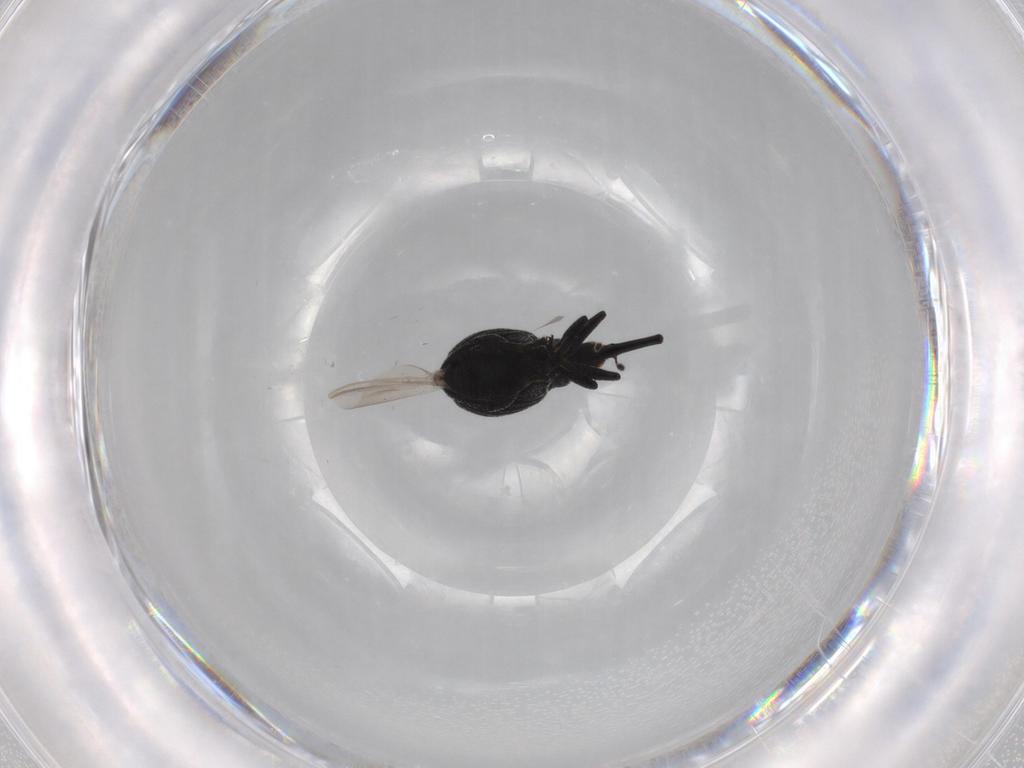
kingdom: Animalia
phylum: Arthropoda
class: Insecta
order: Coleoptera
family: Brentidae
